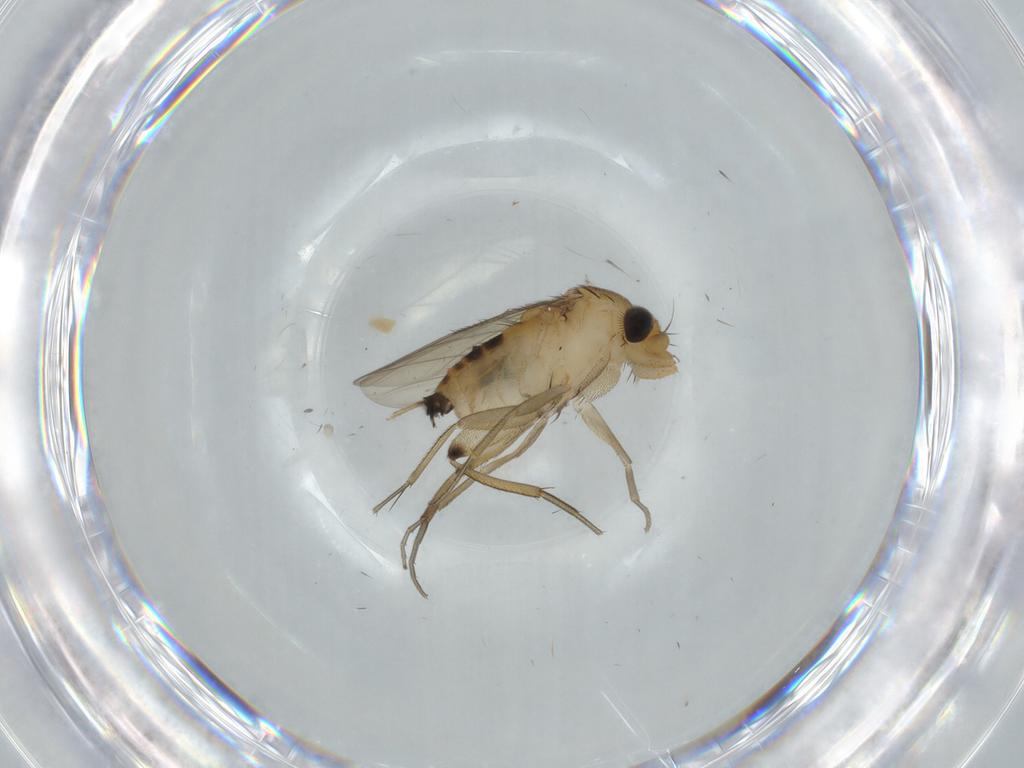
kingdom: Animalia
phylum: Arthropoda
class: Insecta
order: Diptera
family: Phoridae
